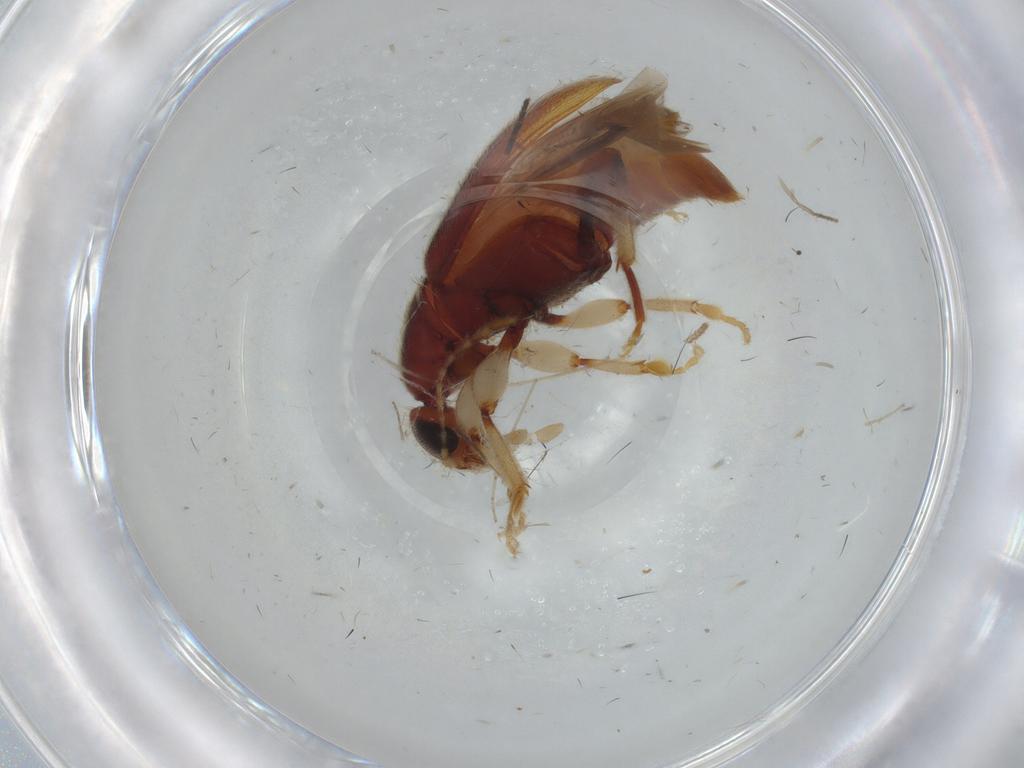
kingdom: Animalia
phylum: Arthropoda
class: Insecta
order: Coleoptera
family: Anthicidae
